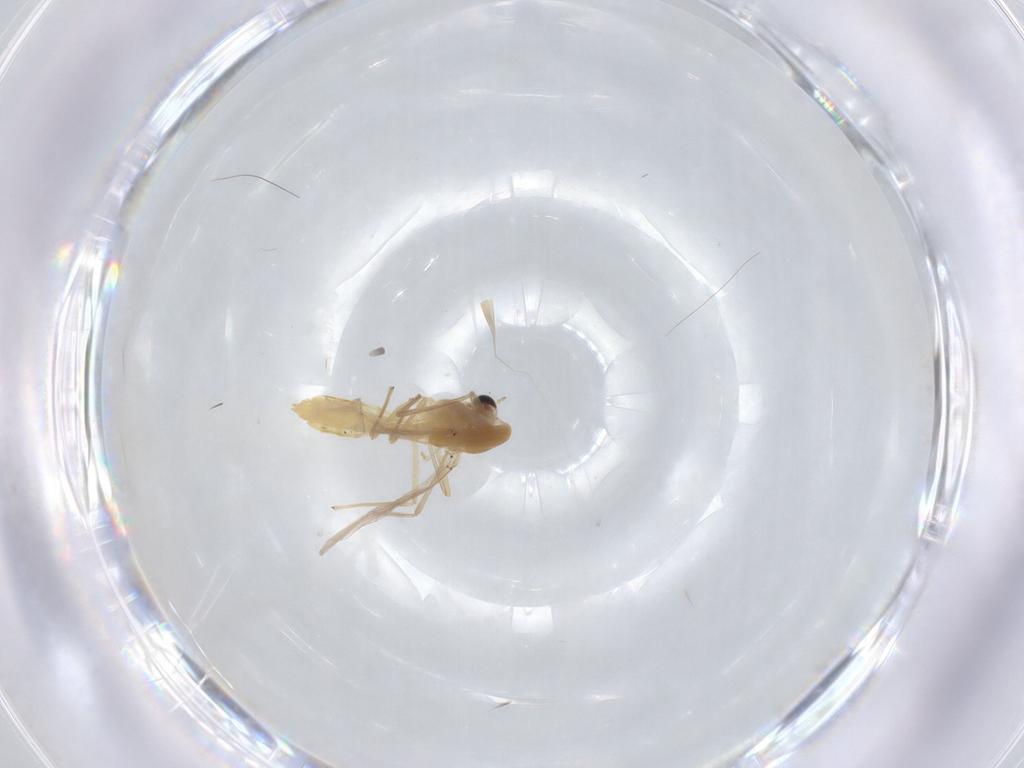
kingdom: Animalia
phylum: Arthropoda
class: Insecta
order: Diptera
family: Chironomidae
